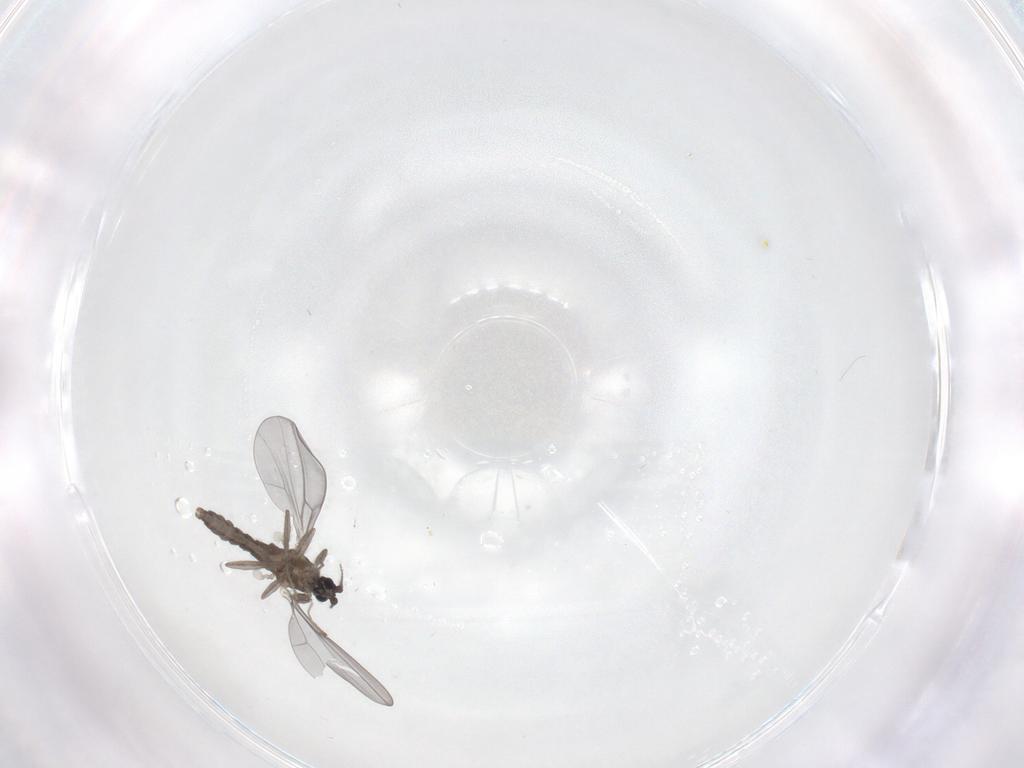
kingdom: Animalia
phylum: Arthropoda
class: Insecta
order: Diptera
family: Cecidomyiidae
